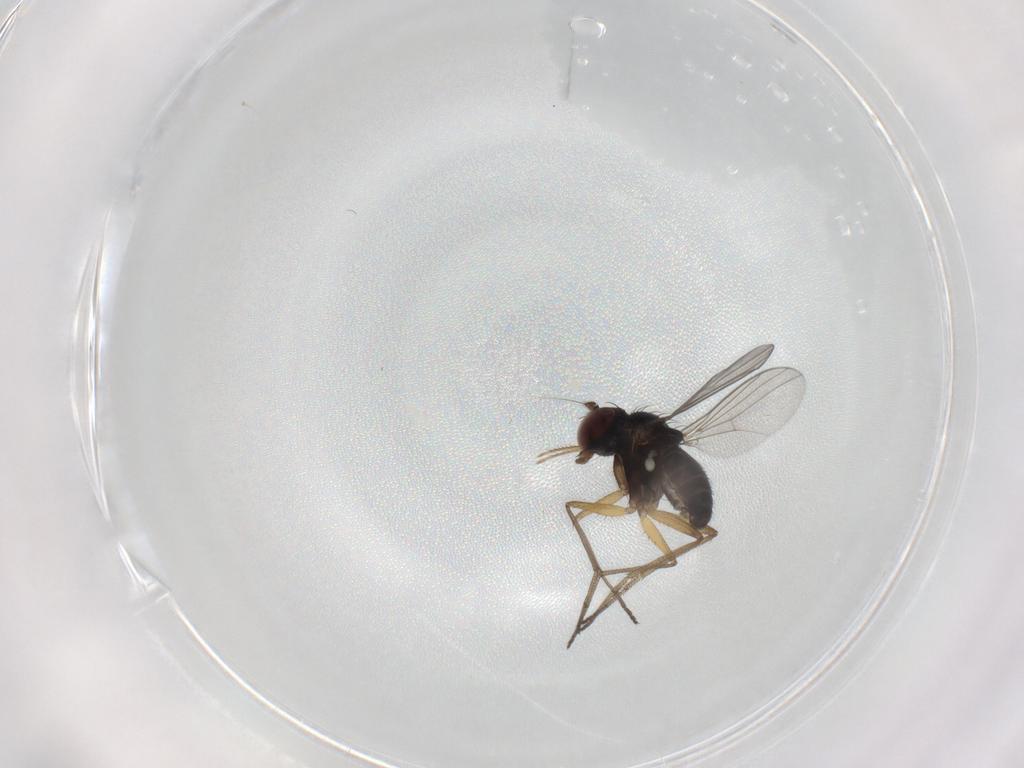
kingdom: Animalia
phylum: Arthropoda
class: Insecta
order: Diptera
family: Dolichopodidae
